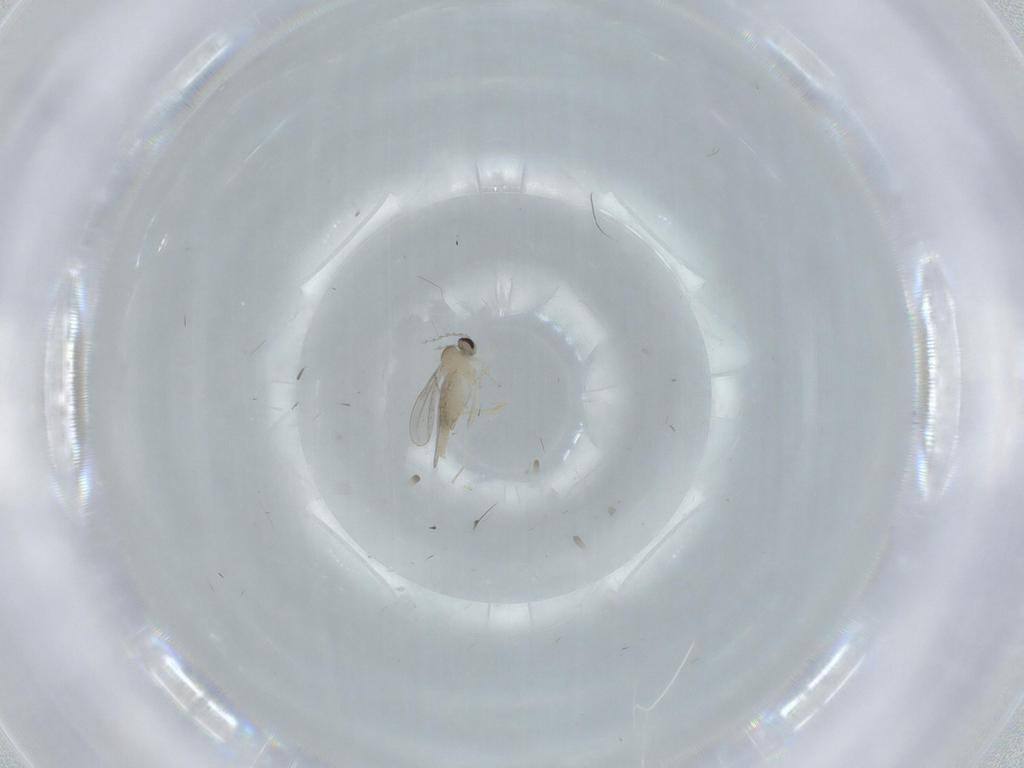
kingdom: Animalia
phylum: Arthropoda
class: Insecta
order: Diptera
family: Cecidomyiidae
